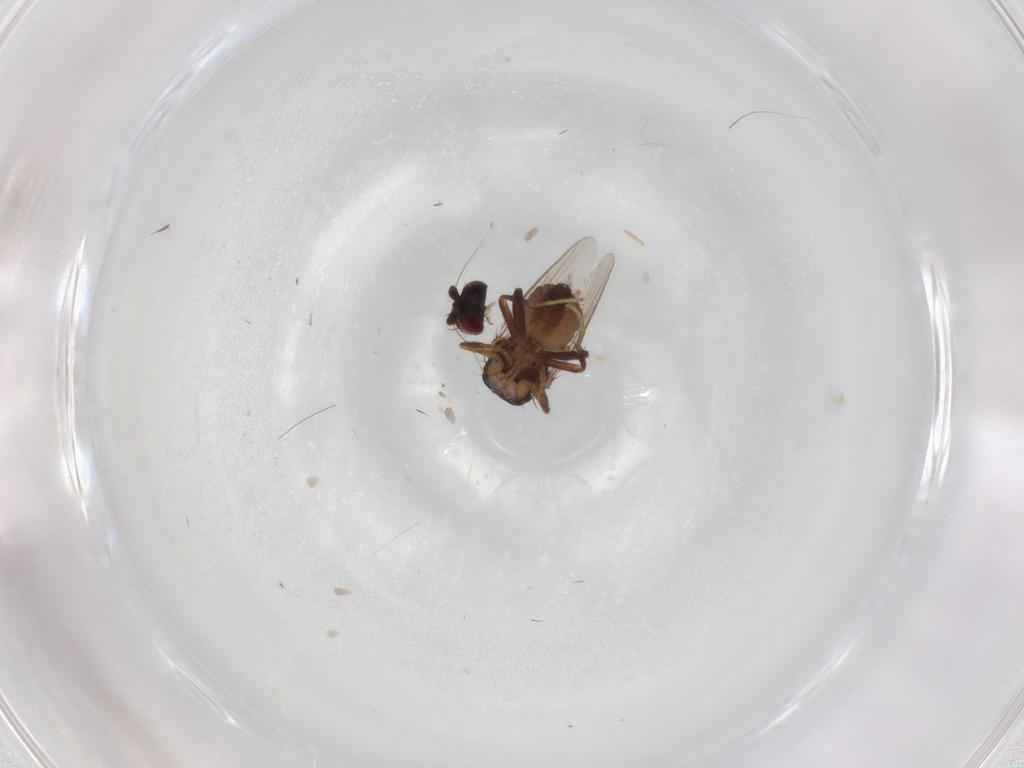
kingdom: Animalia
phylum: Arthropoda
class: Insecta
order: Diptera
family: Sphaeroceridae
